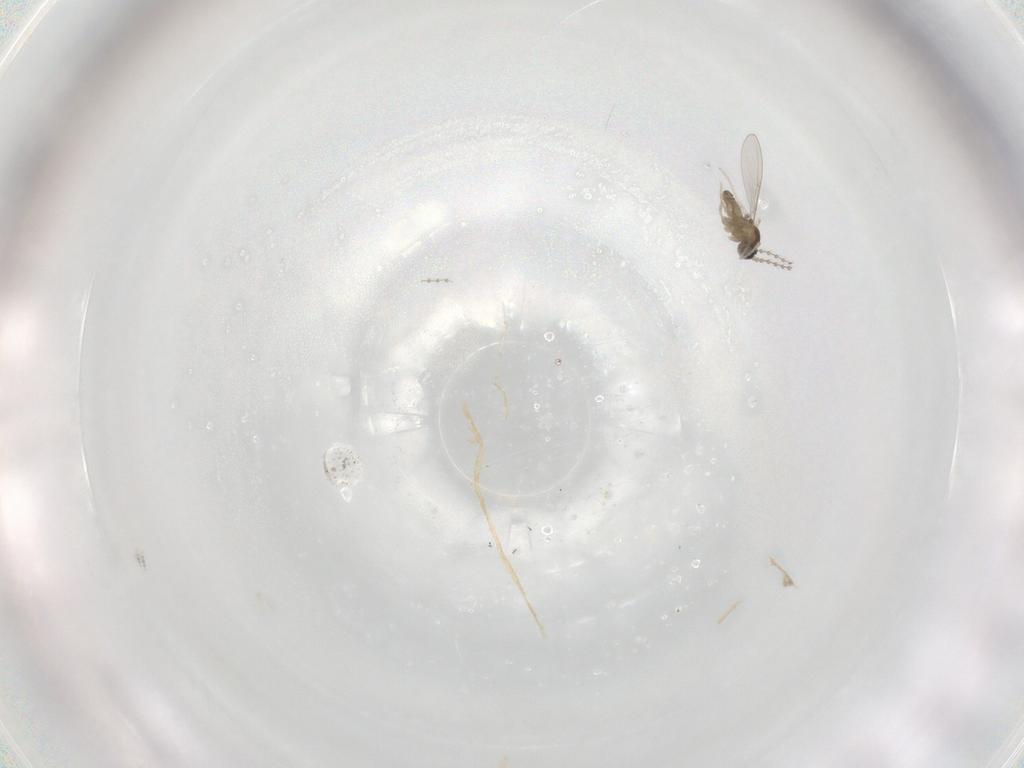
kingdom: Animalia
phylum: Arthropoda
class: Insecta
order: Diptera
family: Cecidomyiidae
